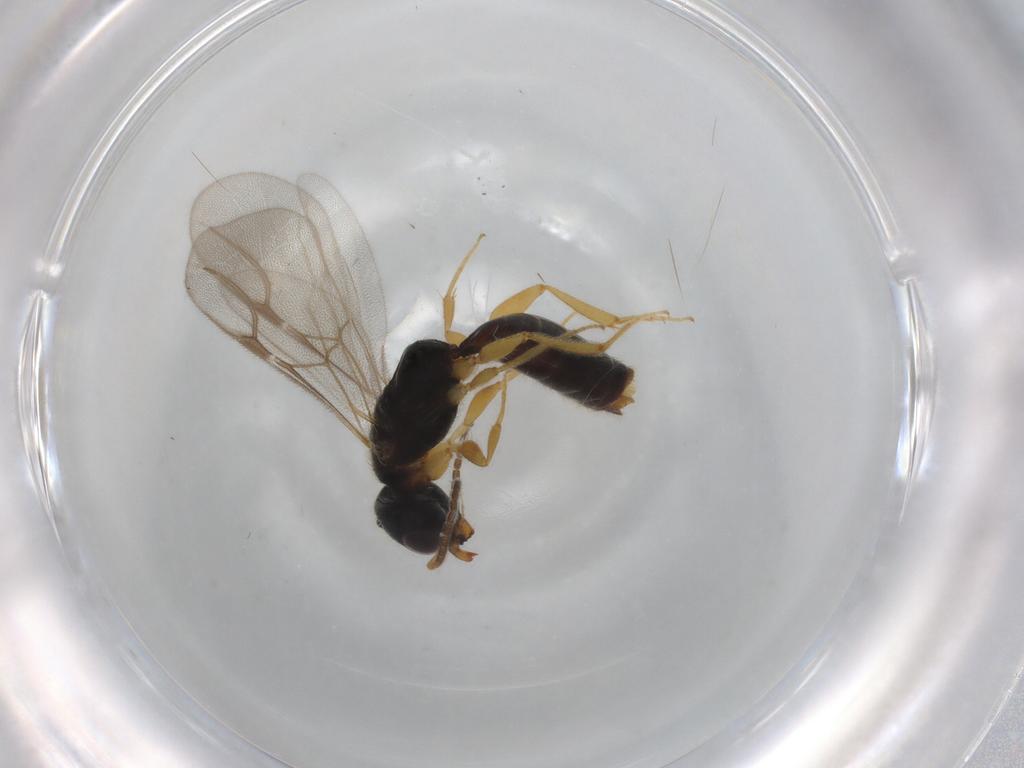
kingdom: Animalia
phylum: Arthropoda
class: Insecta
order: Hymenoptera
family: Bethylidae
